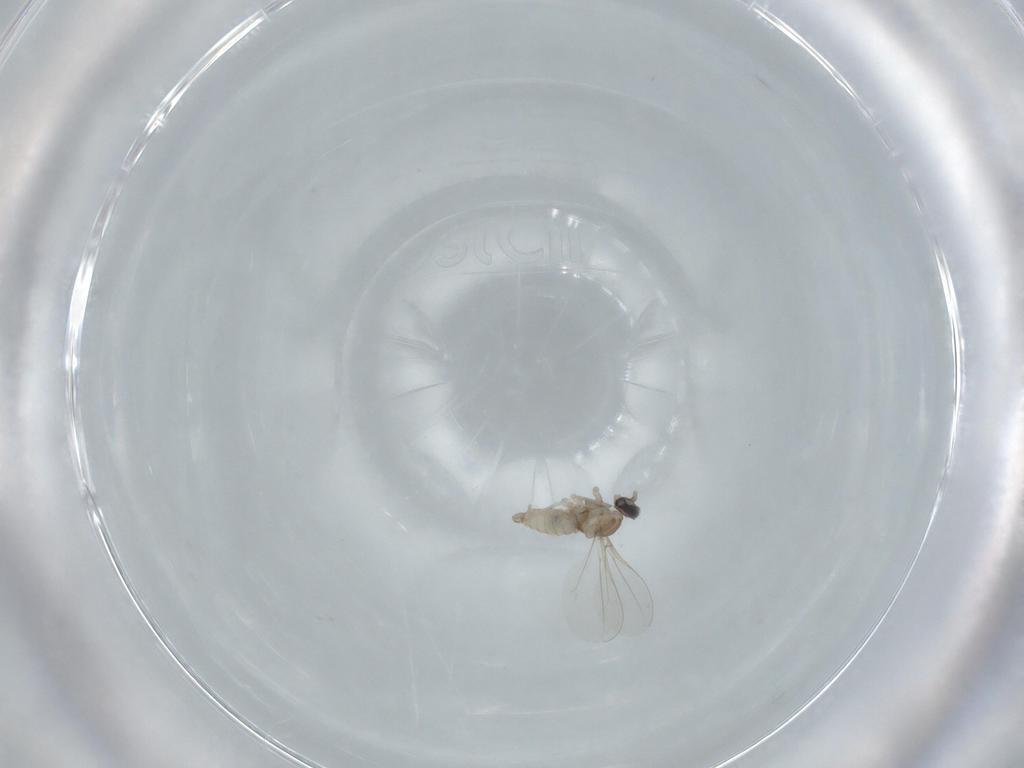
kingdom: Animalia
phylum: Arthropoda
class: Insecta
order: Diptera
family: Cecidomyiidae
